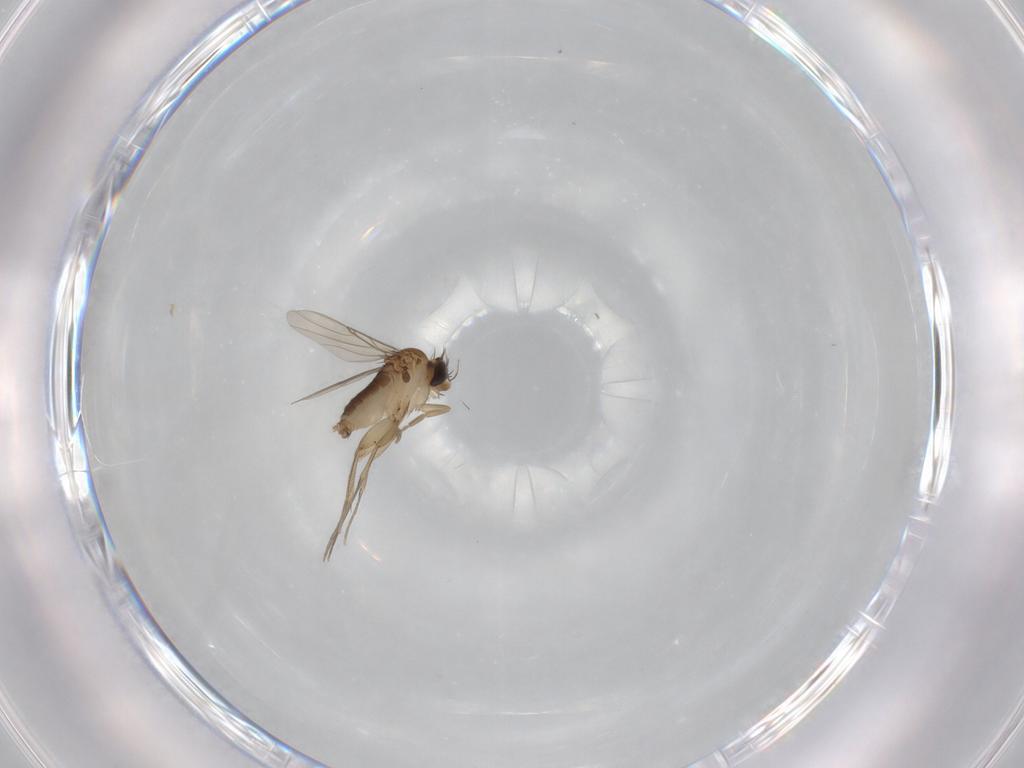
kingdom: Animalia
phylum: Arthropoda
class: Insecta
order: Diptera
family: Phoridae
